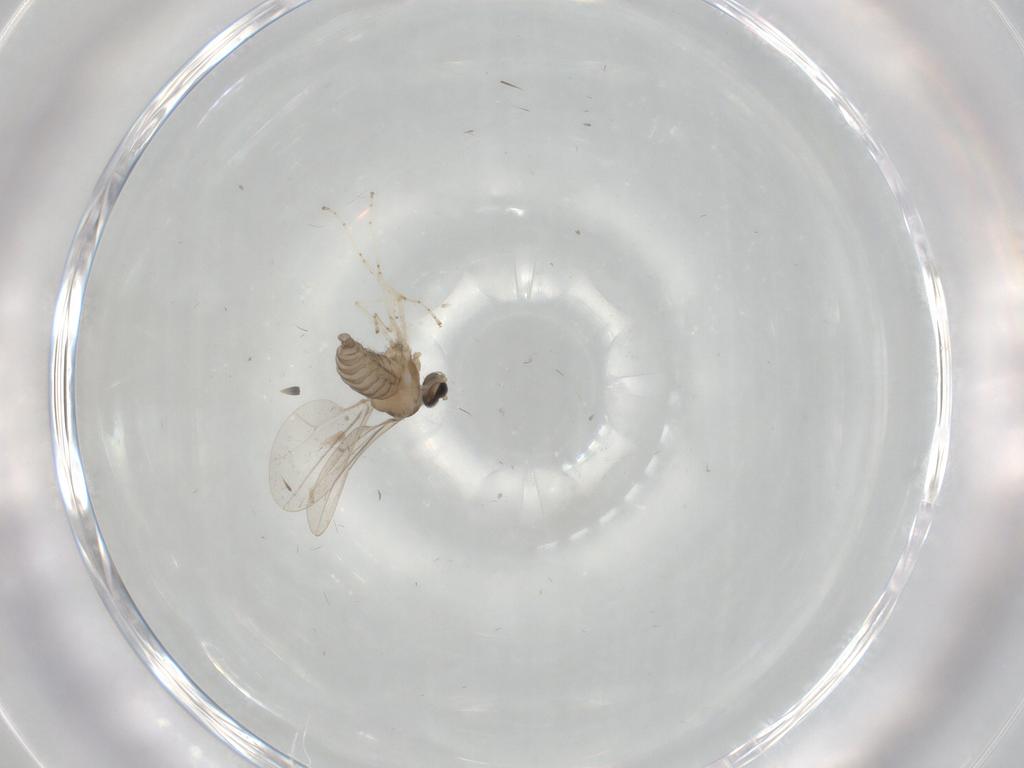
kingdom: Animalia
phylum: Arthropoda
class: Insecta
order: Diptera
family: Cecidomyiidae
